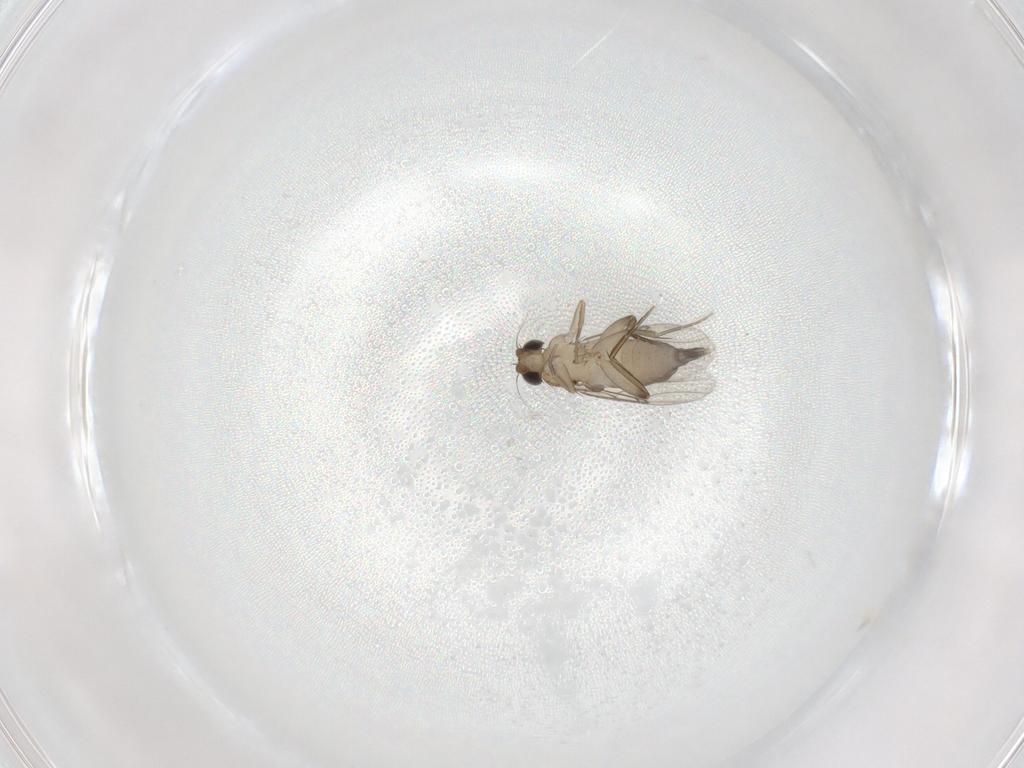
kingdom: Animalia
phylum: Arthropoda
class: Insecta
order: Diptera
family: Phoridae
